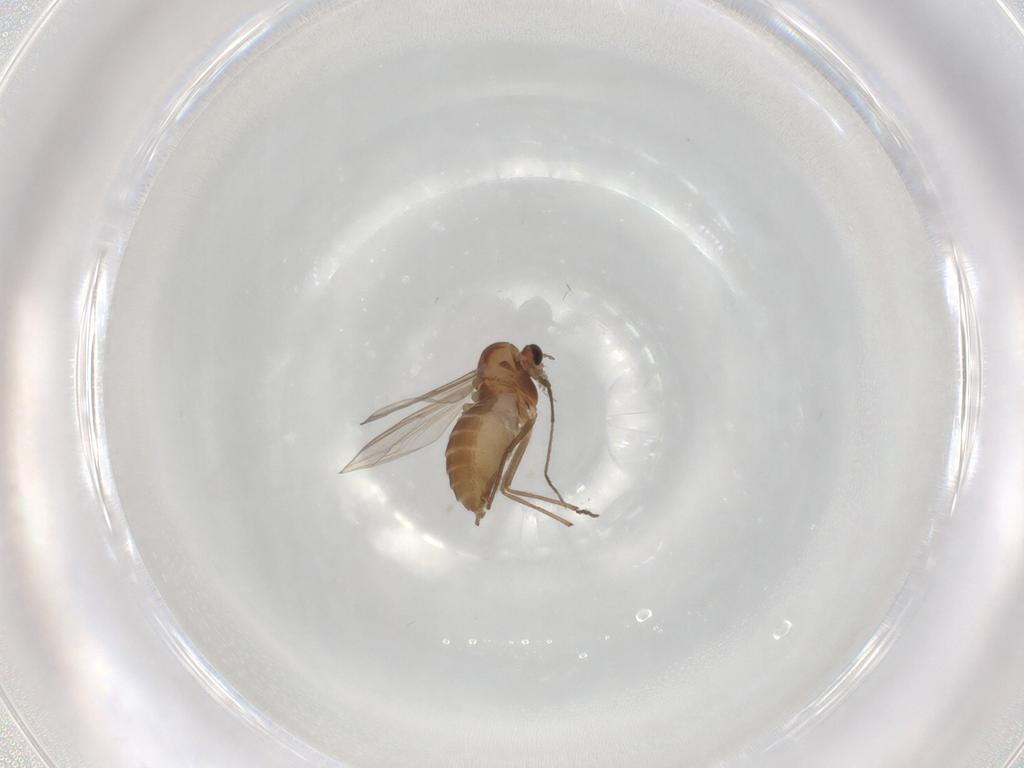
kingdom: Animalia
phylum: Arthropoda
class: Insecta
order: Diptera
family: Chironomidae
